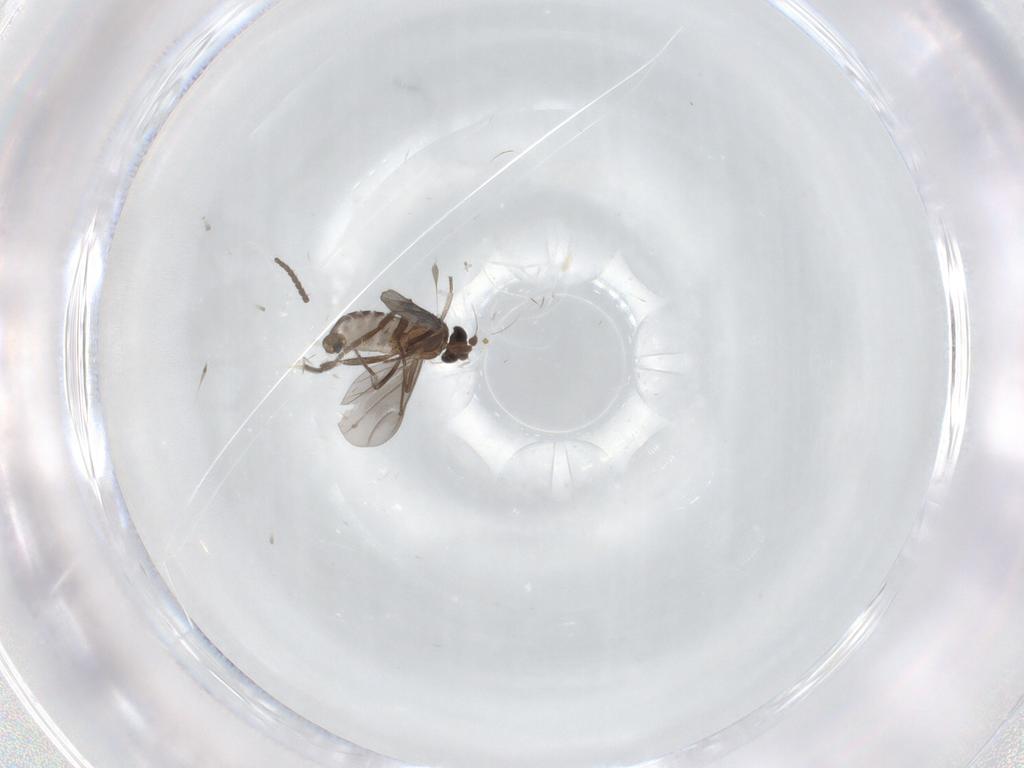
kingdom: Animalia
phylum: Arthropoda
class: Insecta
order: Diptera
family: Phoridae
